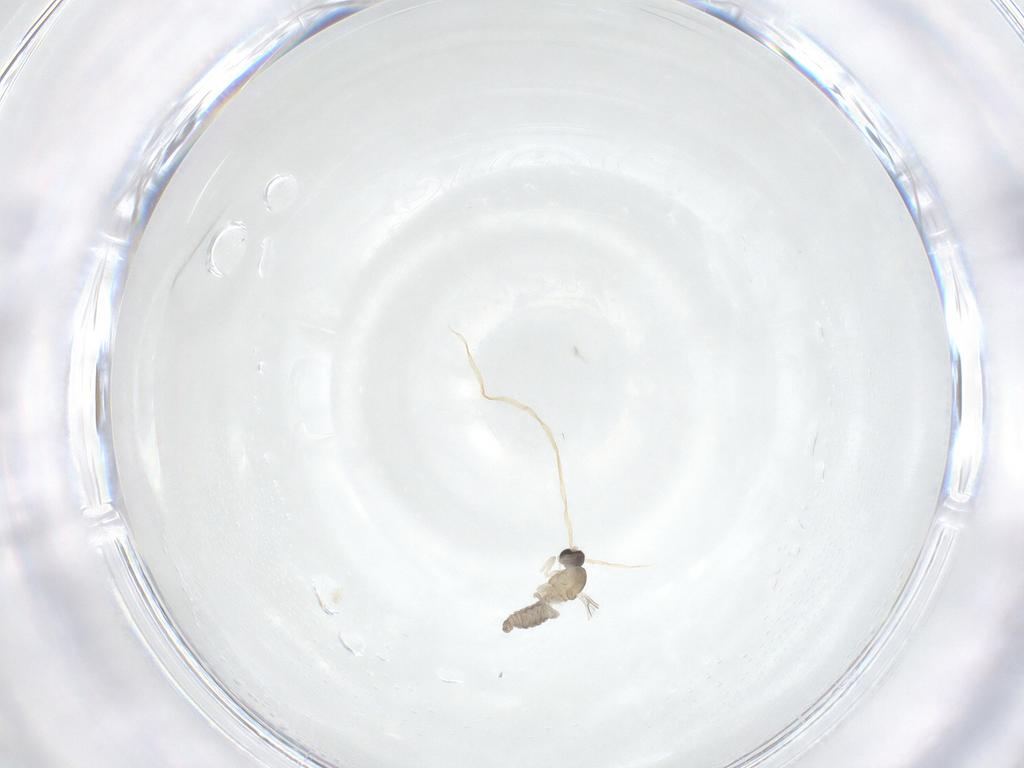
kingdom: Animalia
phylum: Arthropoda
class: Insecta
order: Diptera
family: Cecidomyiidae
